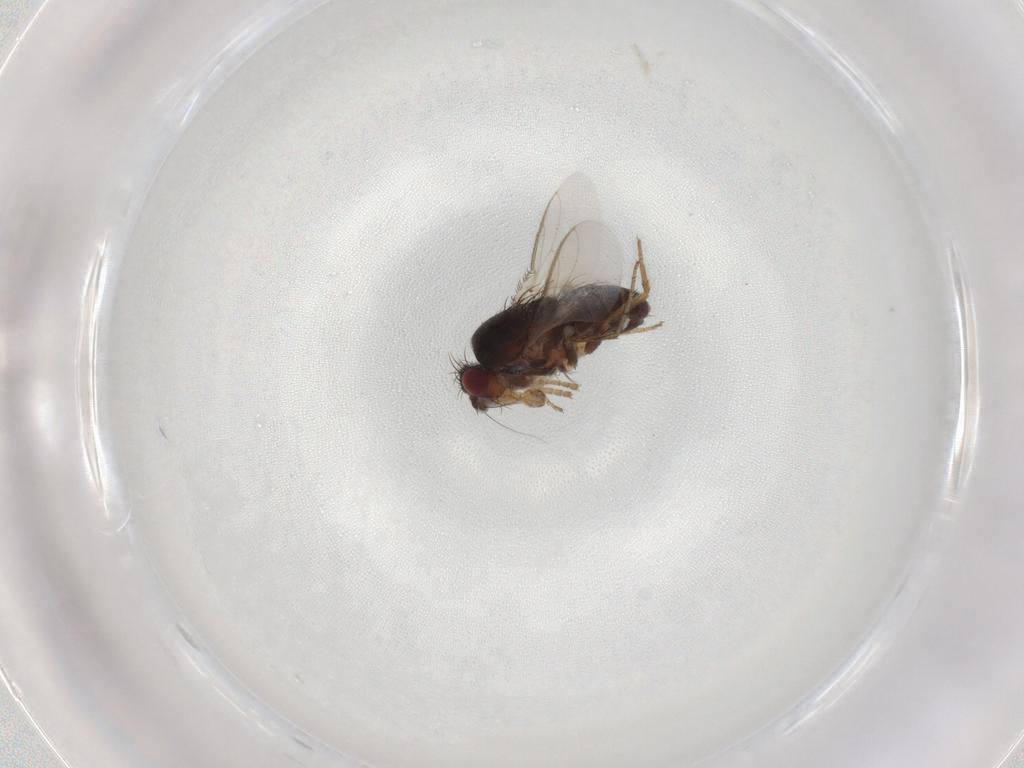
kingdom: Animalia
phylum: Arthropoda
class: Insecta
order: Diptera
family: Sphaeroceridae
